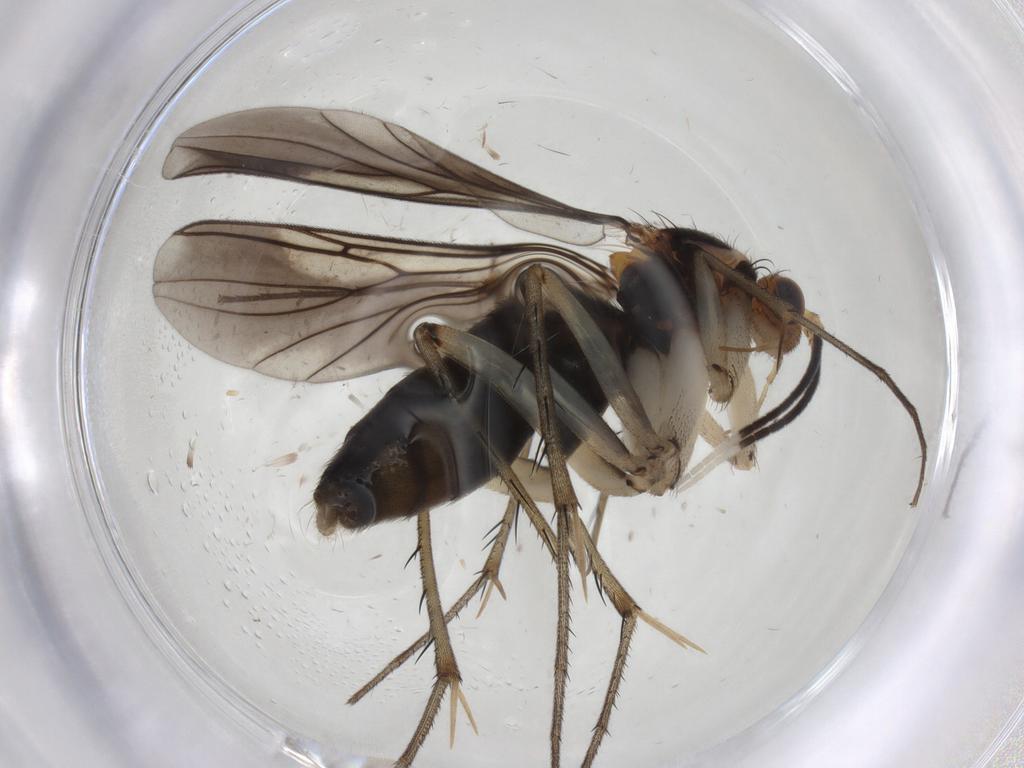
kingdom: Animalia
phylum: Arthropoda
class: Insecta
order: Diptera
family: Mycetophilidae
